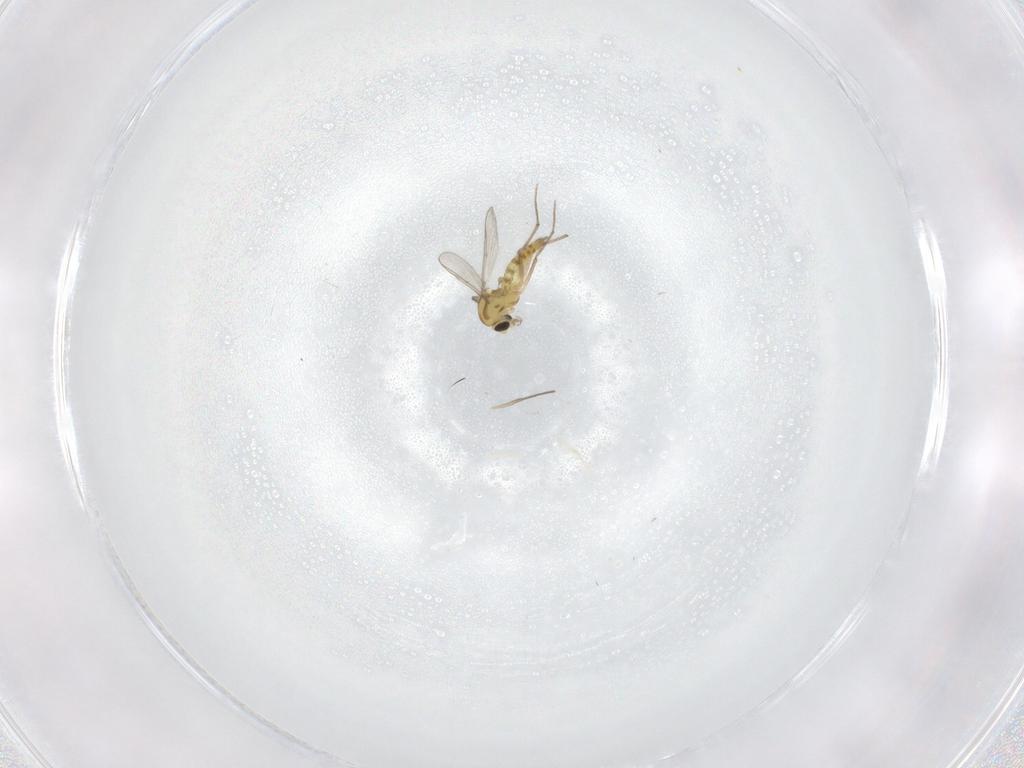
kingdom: Animalia
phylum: Arthropoda
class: Insecta
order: Diptera
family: Chironomidae
